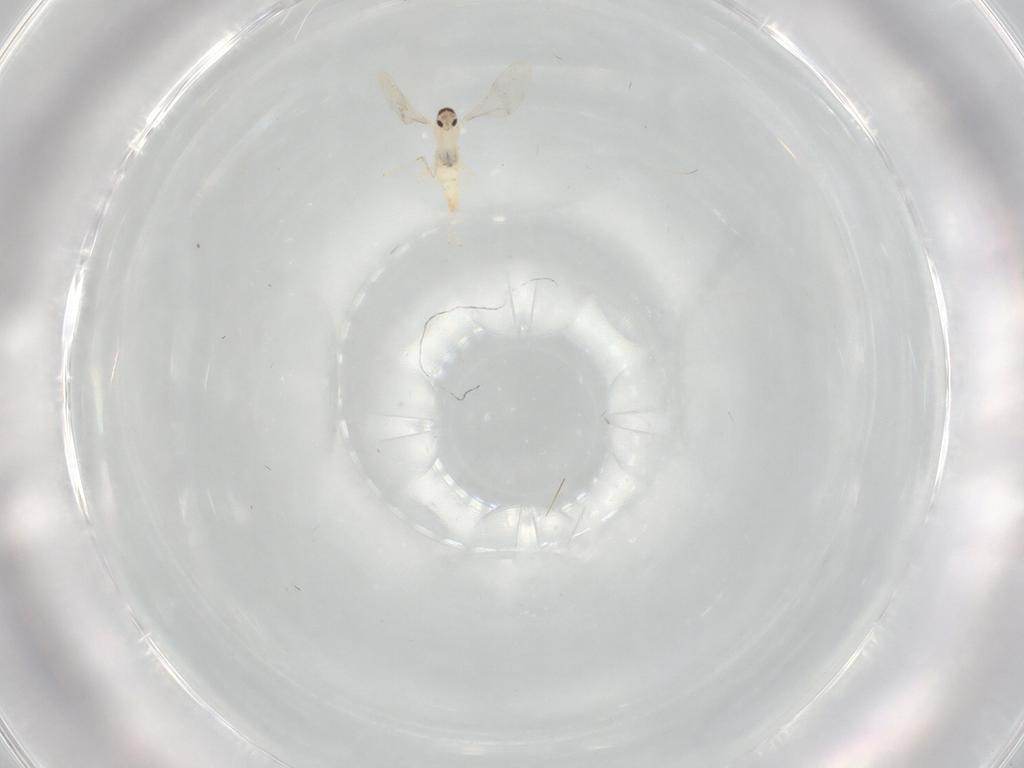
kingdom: Animalia
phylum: Arthropoda
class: Insecta
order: Diptera
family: Cecidomyiidae
